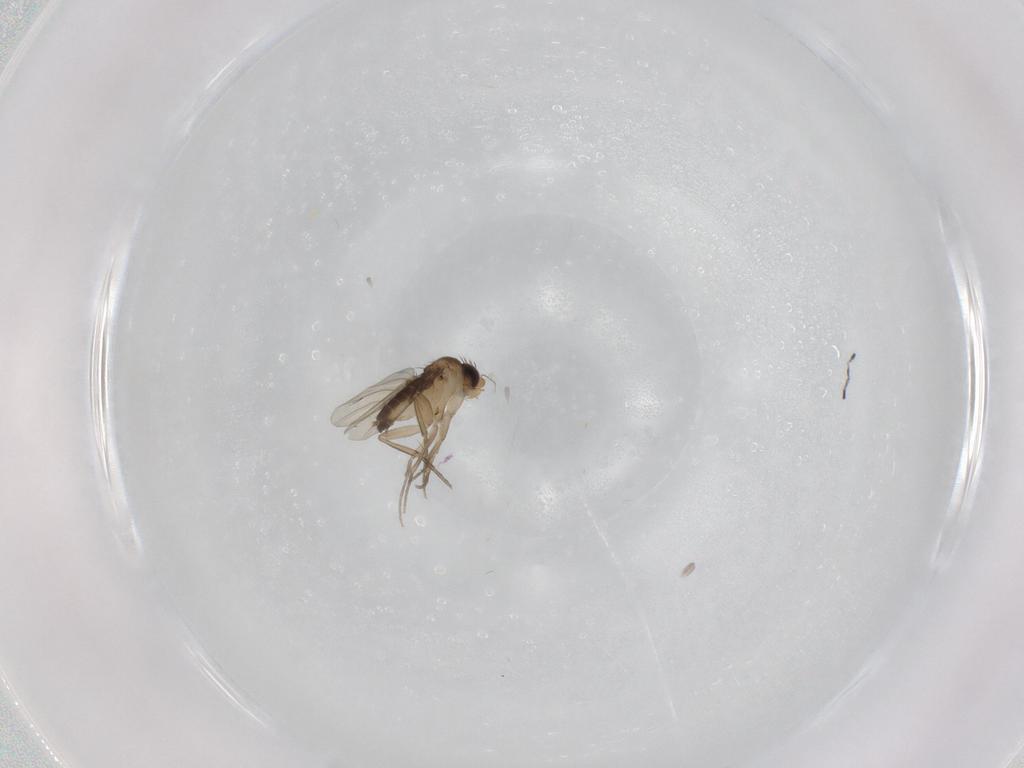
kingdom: Animalia
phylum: Arthropoda
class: Insecta
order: Diptera
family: Phoridae
